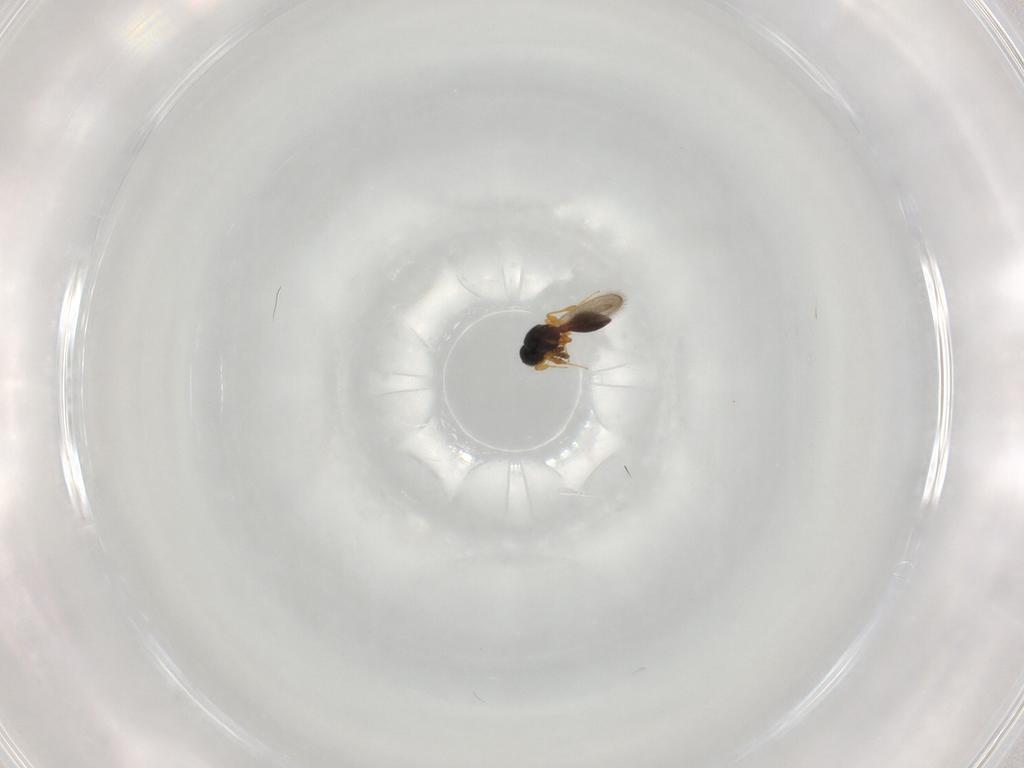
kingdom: Animalia
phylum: Arthropoda
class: Insecta
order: Hymenoptera
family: Platygastridae
